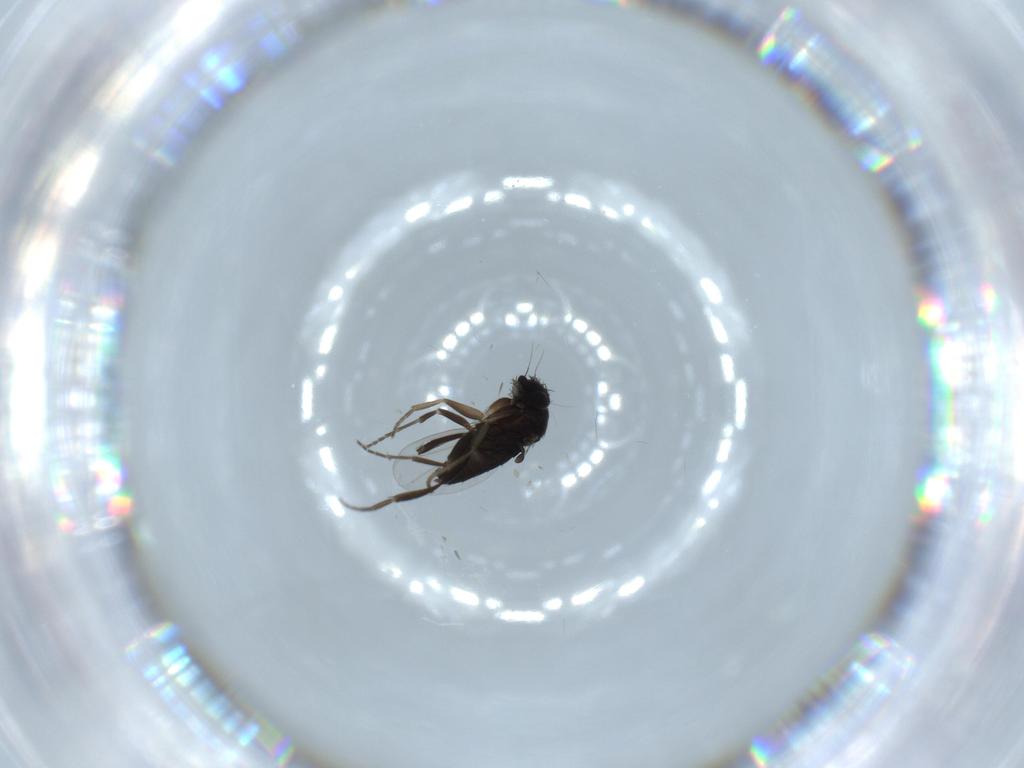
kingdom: Animalia
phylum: Arthropoda
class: Insecta
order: Diptera
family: Phoridae
